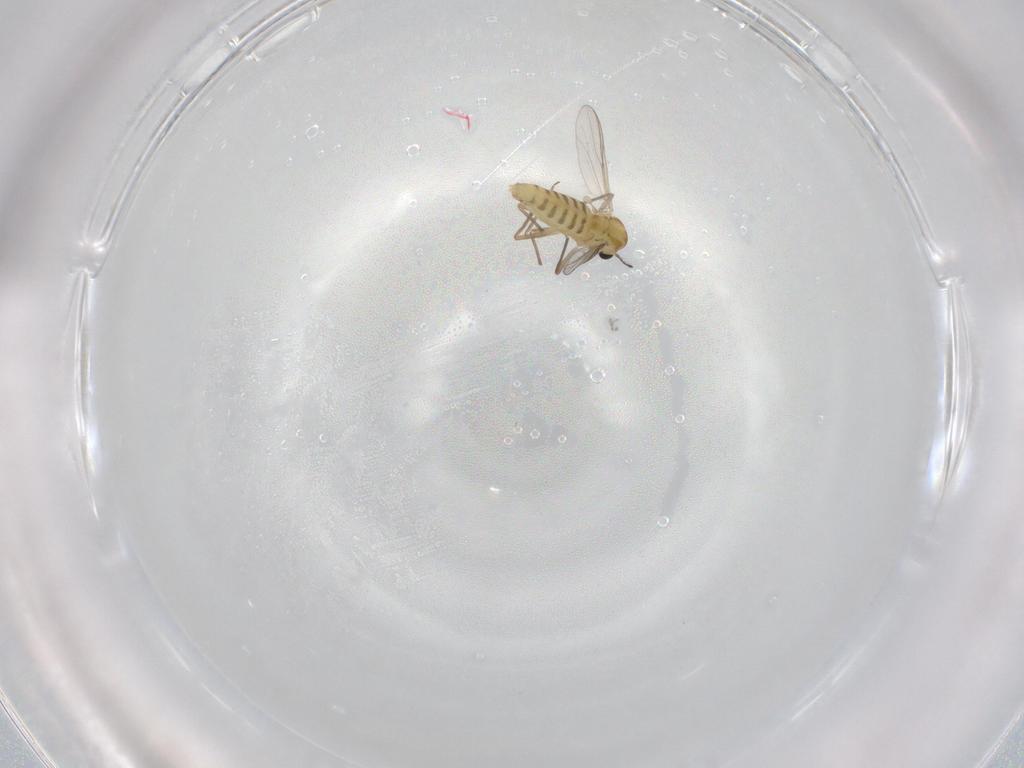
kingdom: Animalia
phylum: Arthropoda
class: Insecta
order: Diptera
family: Chironomidae
